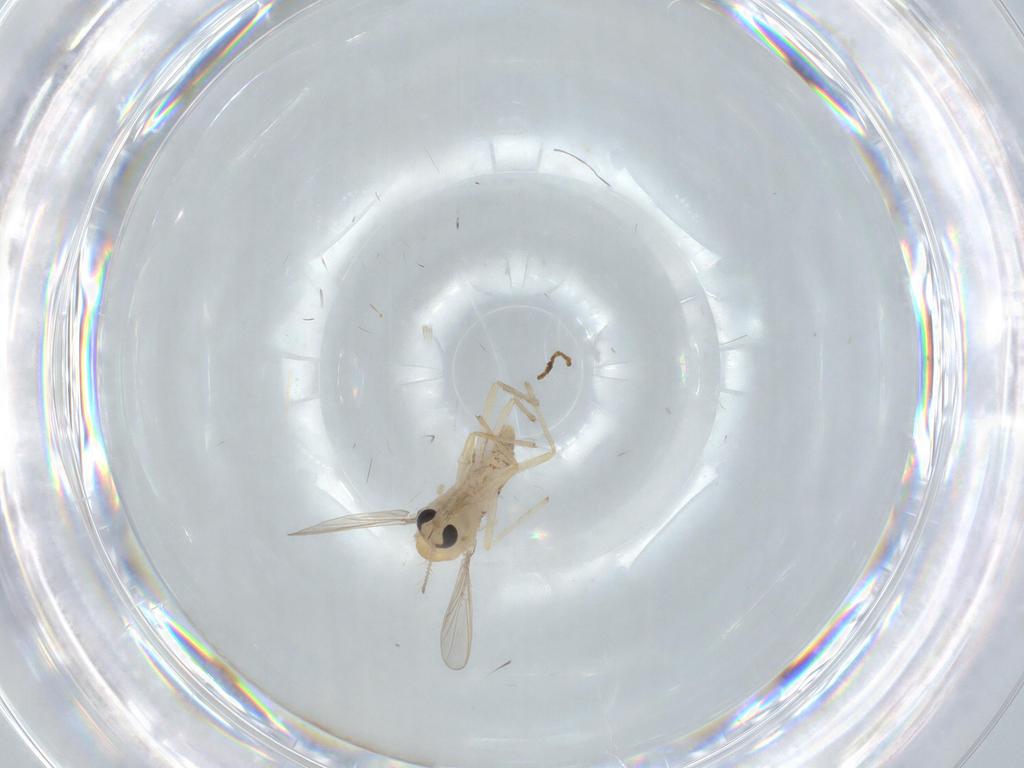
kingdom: Animalia
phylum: Arthropoda
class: Insecta
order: Diptera
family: Chironomidae
